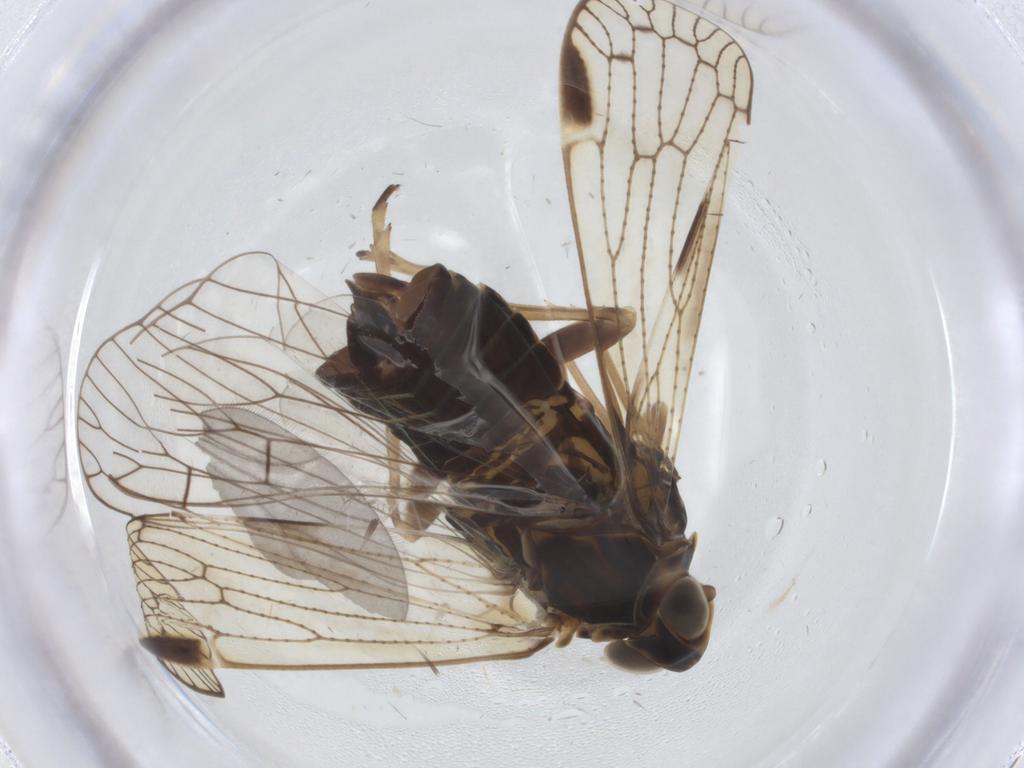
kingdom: Animalia
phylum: Arthropoda
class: Insecta
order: Hemiptera
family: Cixiidae
